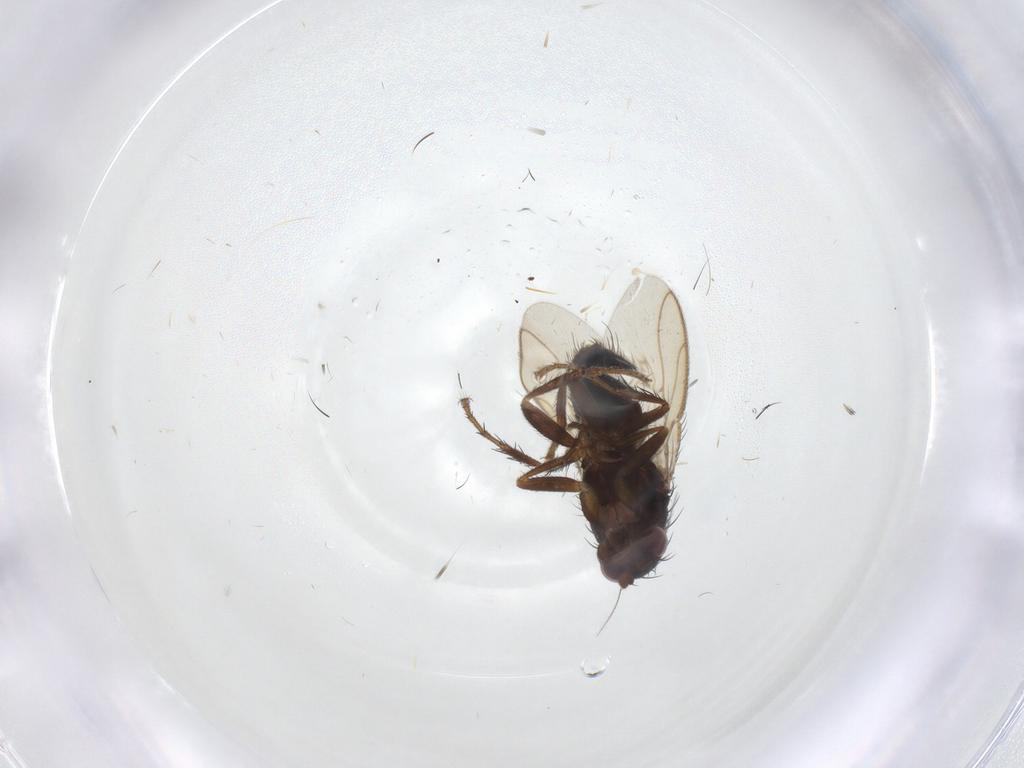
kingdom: Animalia
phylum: Arthropoda
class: Insecta
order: Diptera
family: Sphaeroceridae
